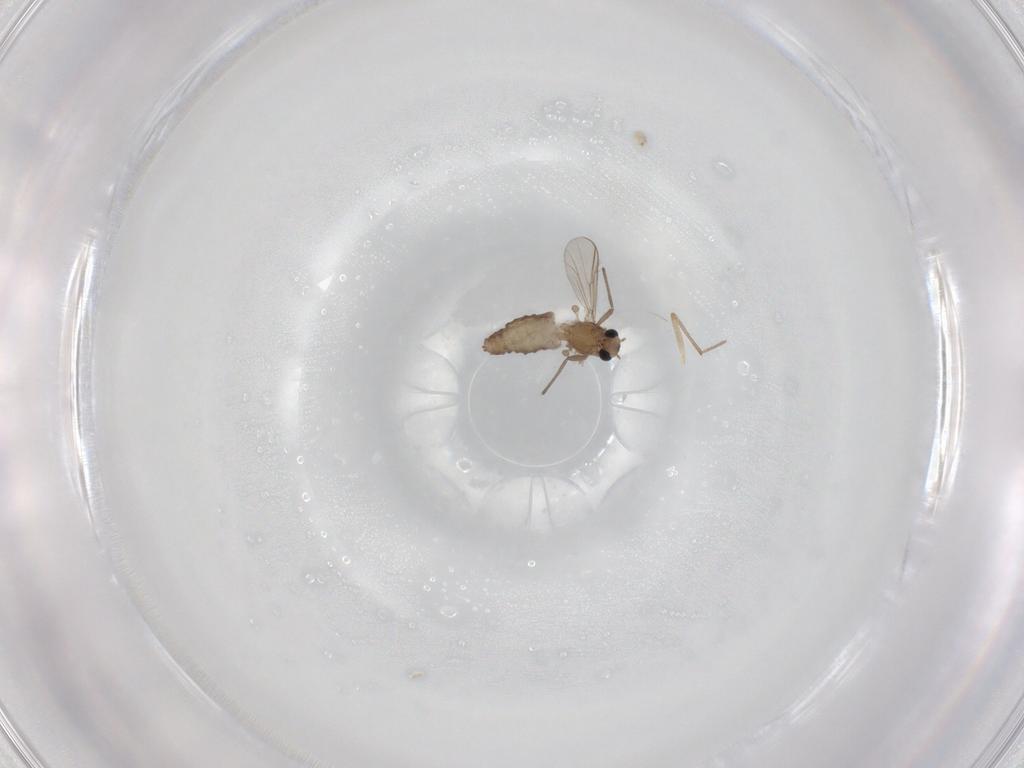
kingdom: Animalia
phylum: Arthropoda
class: Insecta
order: Diptera
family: Chironomidae
